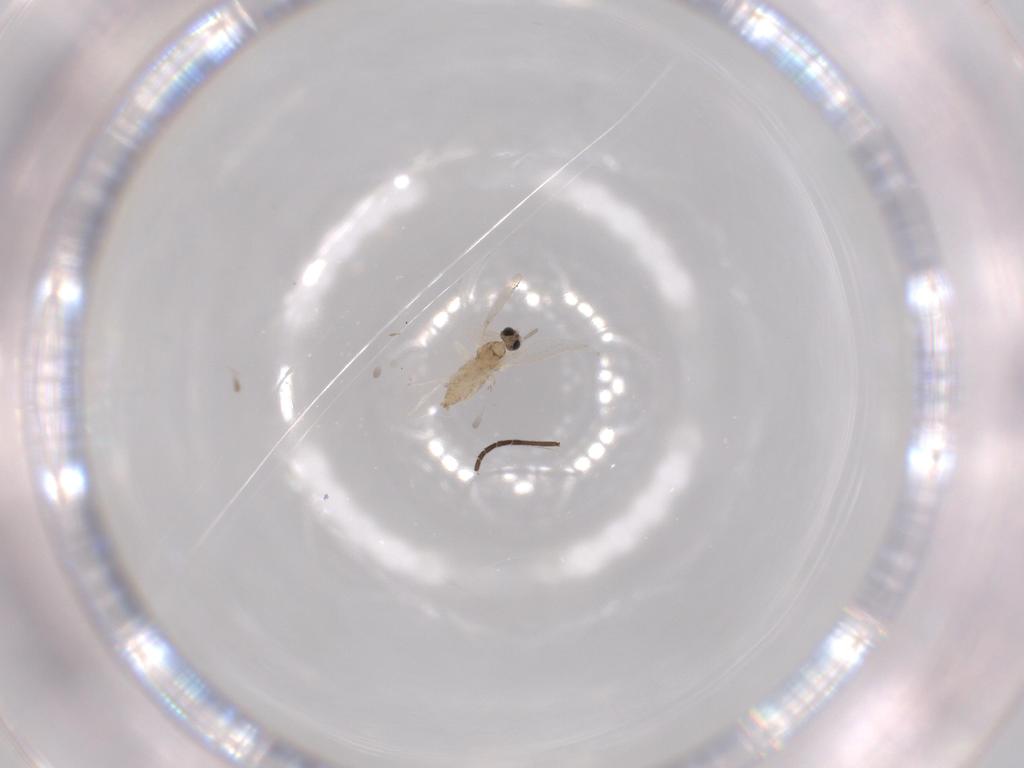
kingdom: Animalia
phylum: Arthropoda
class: Insecta
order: Diptera
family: Cecidomyiidae
